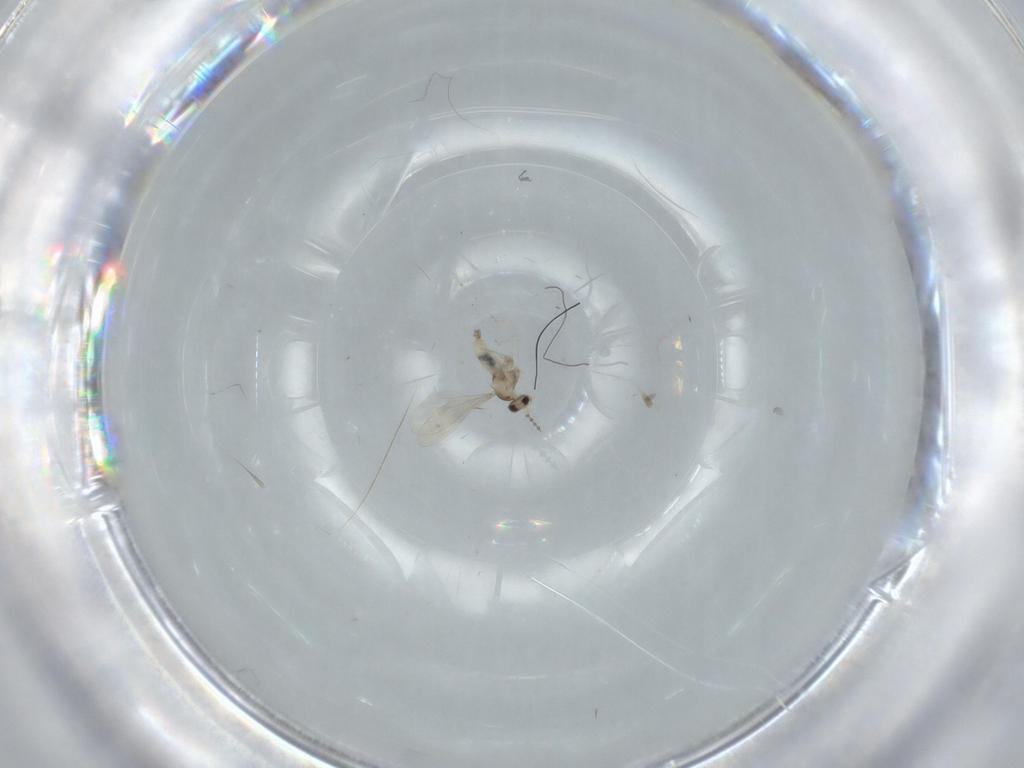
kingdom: Animalia
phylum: Arthropoda
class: Insecta
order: Diptera
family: Cecidomyiidae
